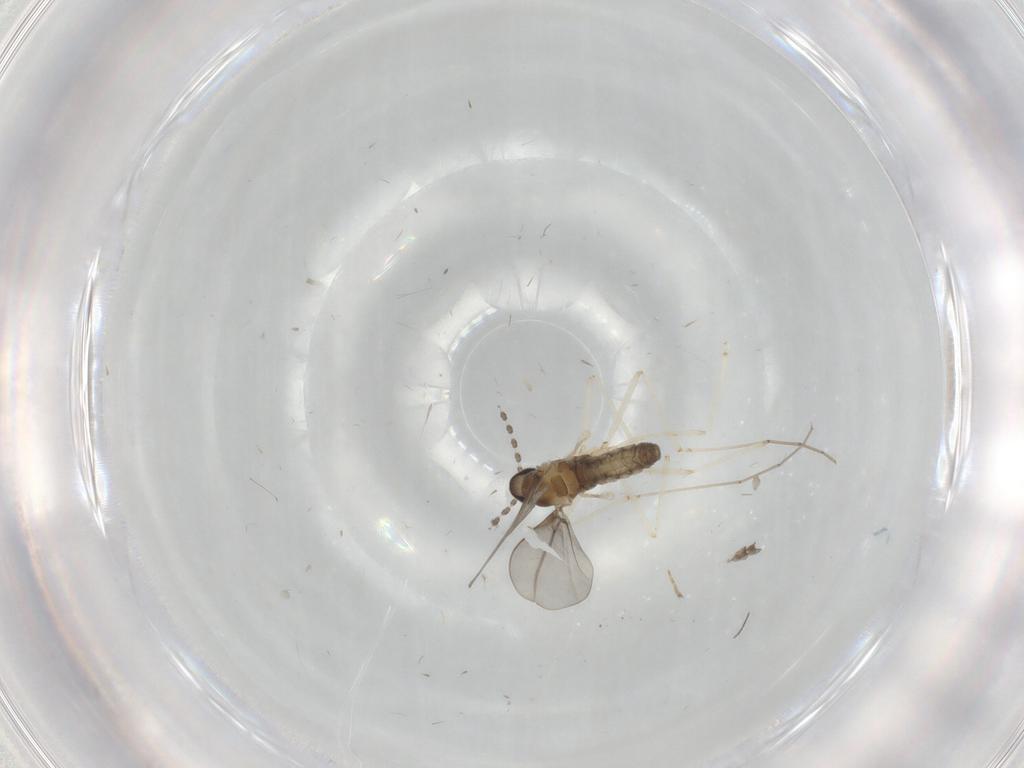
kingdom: Animalia
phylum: Arthropoda
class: Insecta
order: Diptera
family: Cecidomyiidae
